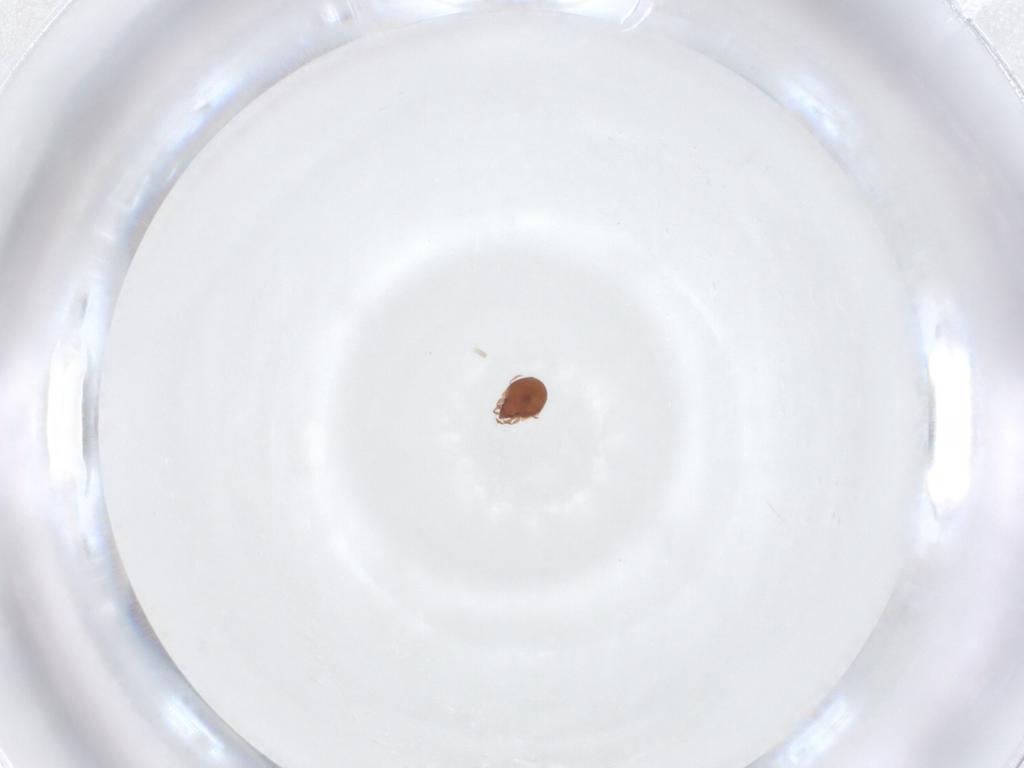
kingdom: Animalia
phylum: Arthropoda
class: Arachnida
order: Sarcoptiformes
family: Scheloribatidae
